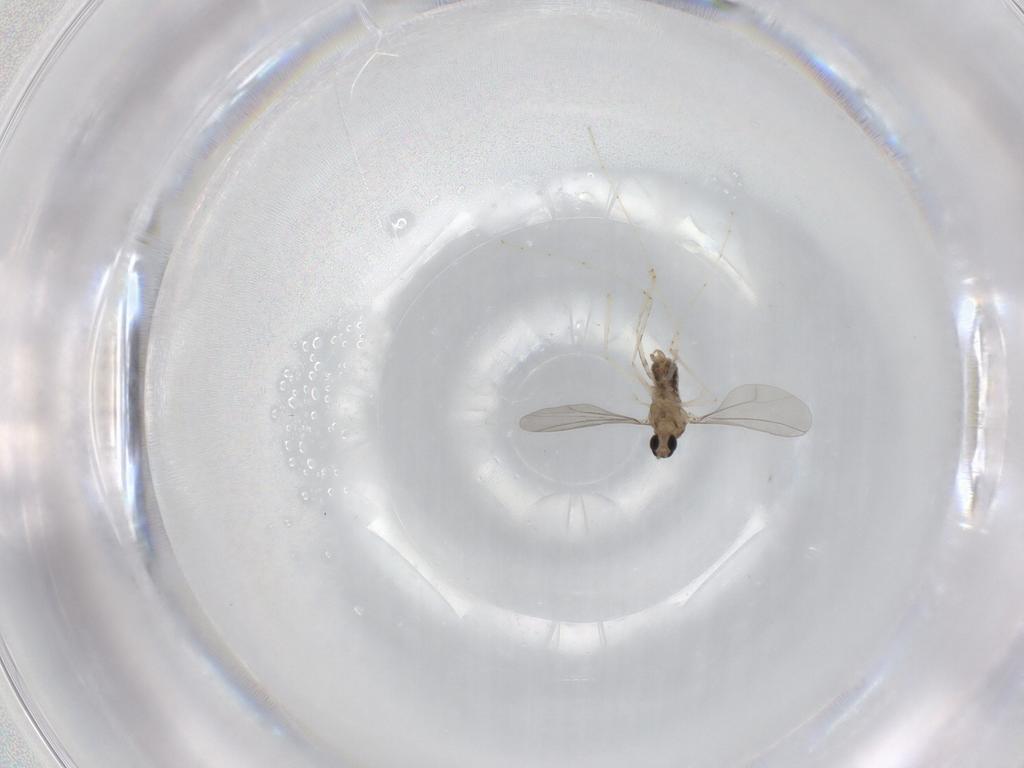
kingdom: Animalia
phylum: Arthropoda
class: Insecta
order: Diptera
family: Cecidomyiidae
